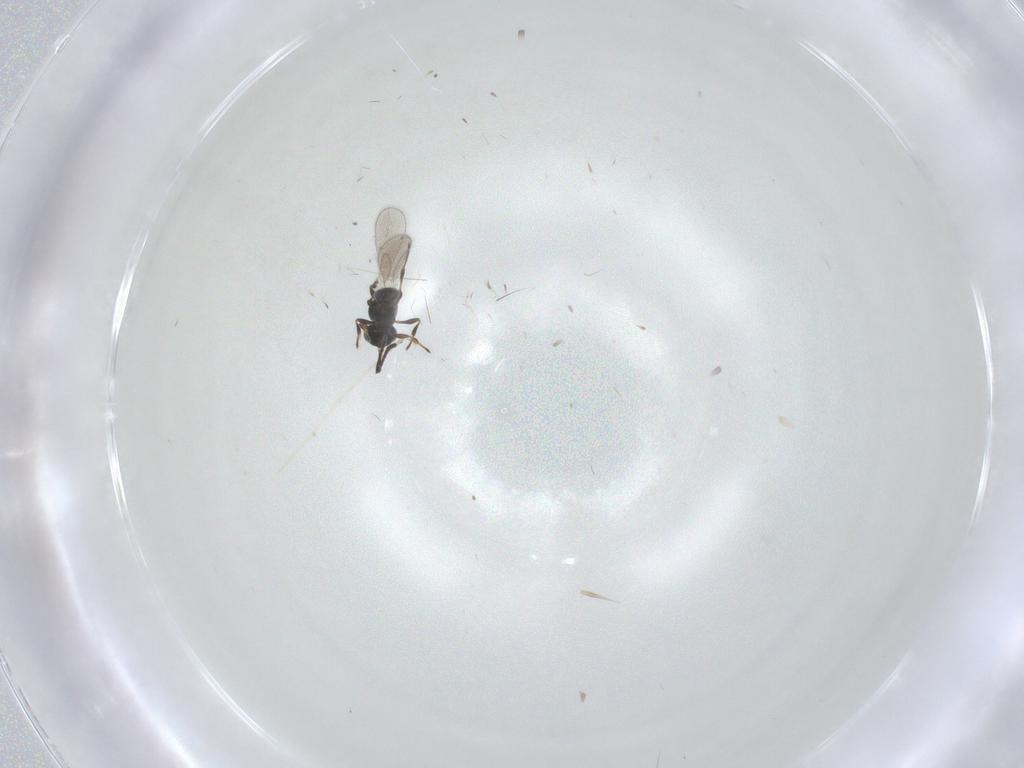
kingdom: Animalia
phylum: Arthropoda
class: Insecta
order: Hymenoptera
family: Platygastridae
